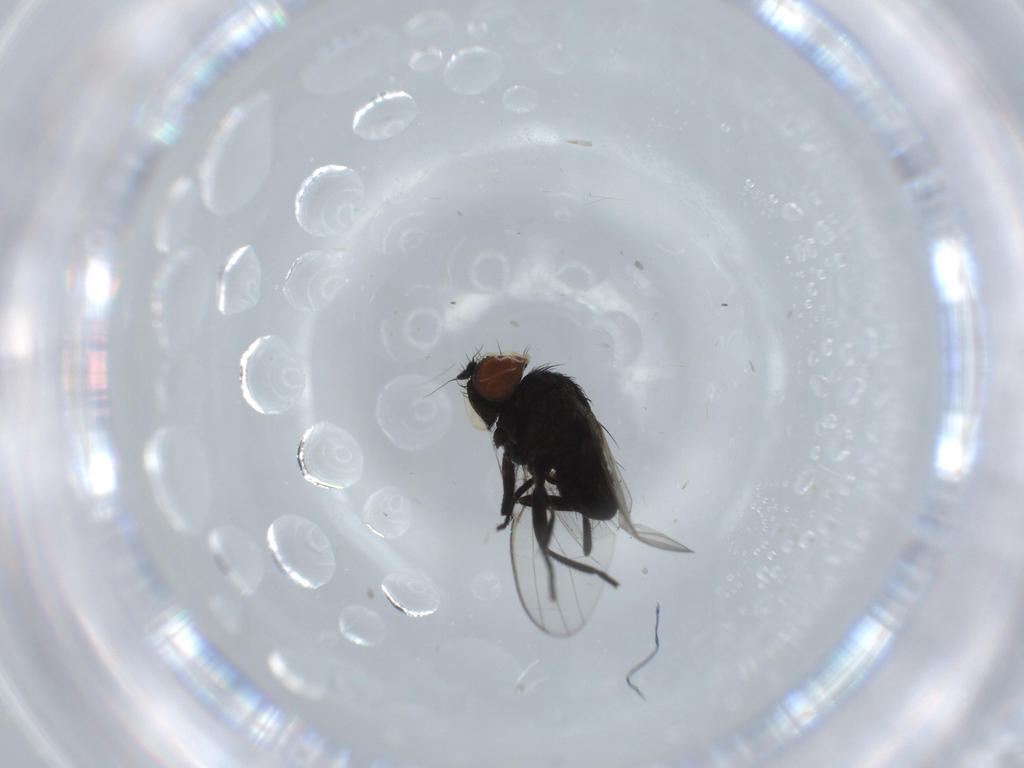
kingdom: Animalia
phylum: Arthropoda
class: Insecta
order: Diptera
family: Milichiidae
